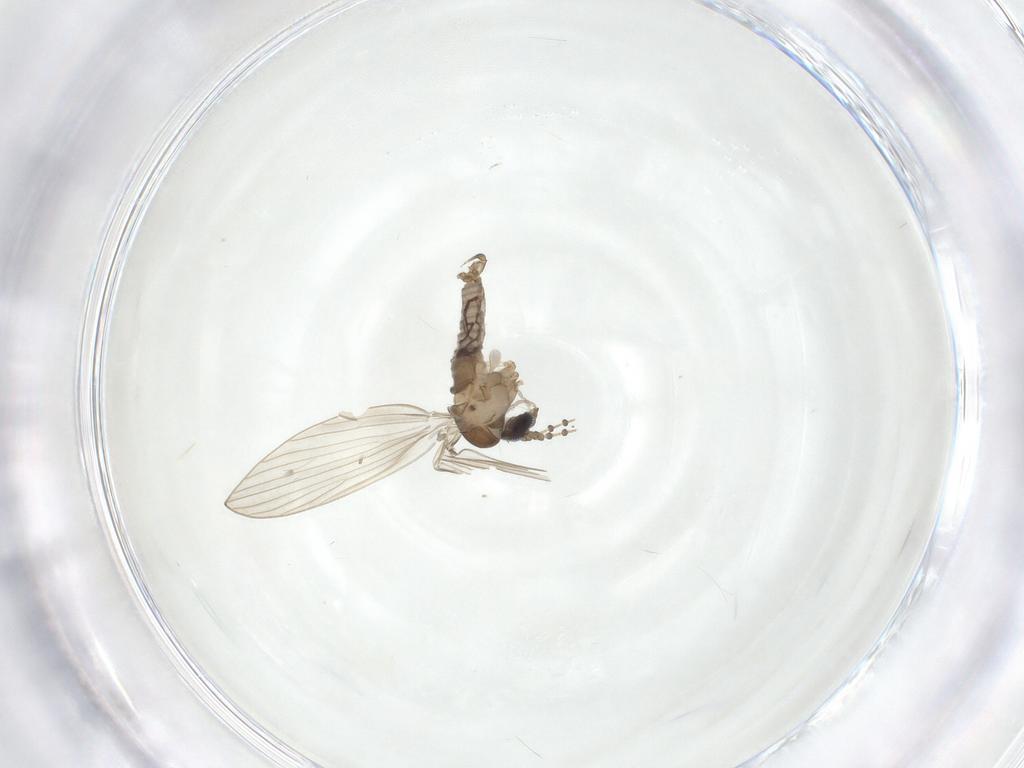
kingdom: Animalia
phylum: Arthropoda
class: Insecta
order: Diptera
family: Psychodidae
